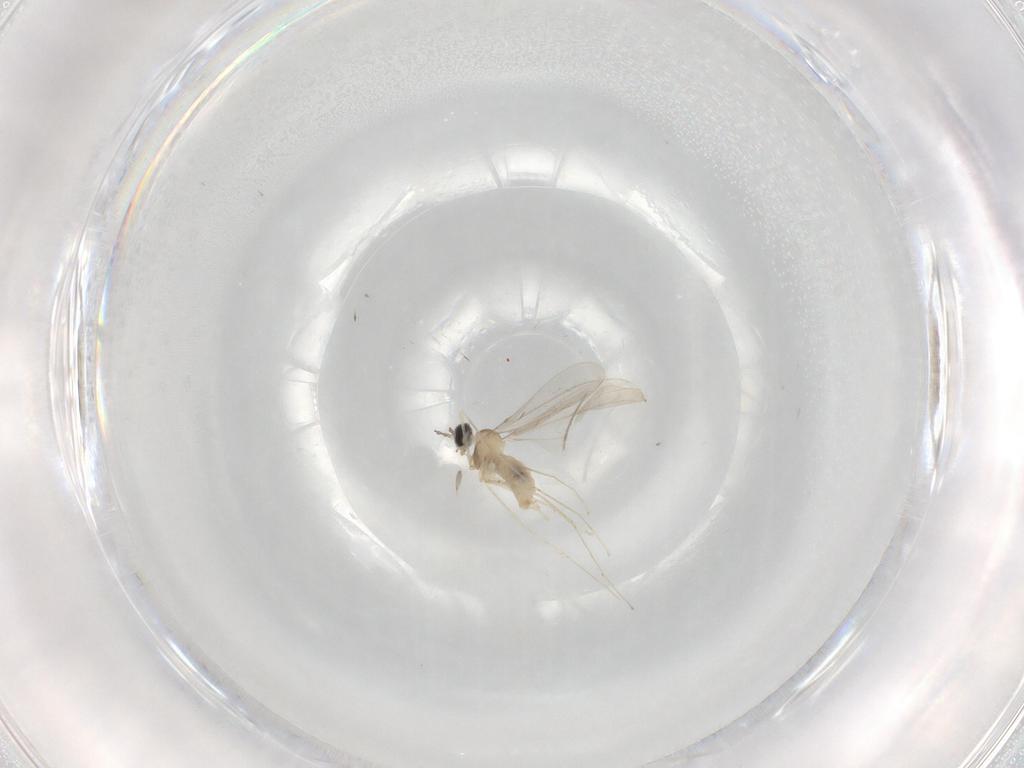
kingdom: Animalia
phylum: Arthropoda
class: Insecta
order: Diptera
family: Cecidomyiidae
